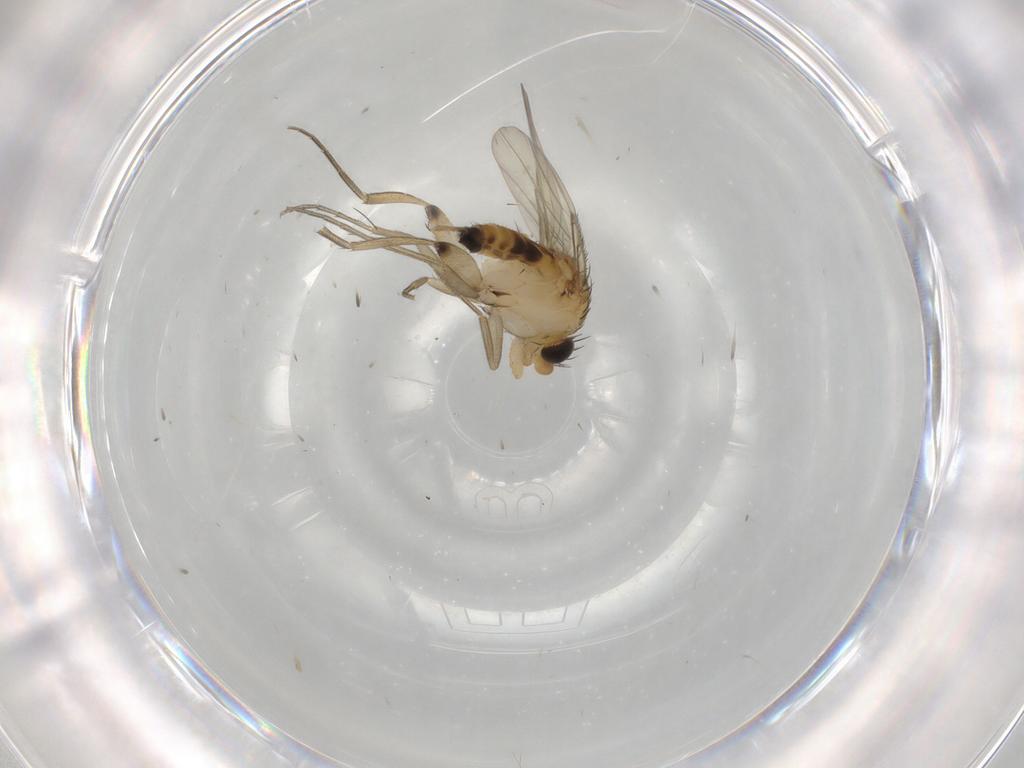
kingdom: Animalia
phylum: Arthropoda
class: Insecta
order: Diptera
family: Phoridae
